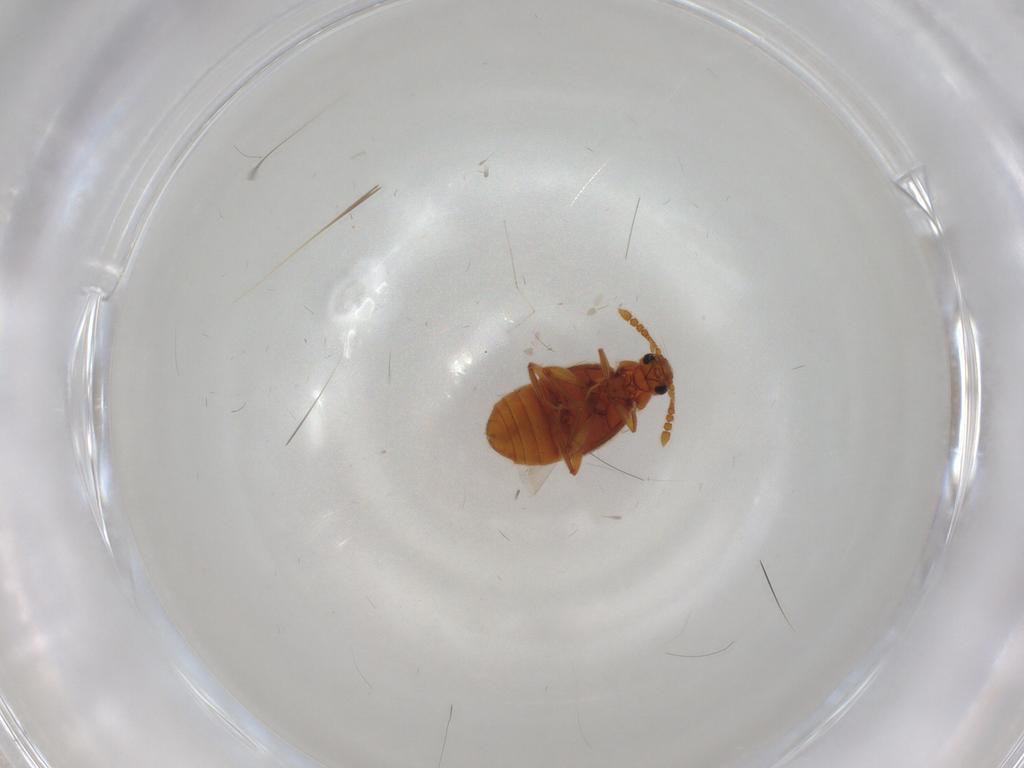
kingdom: Animalia
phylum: Arthropoda
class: Insecta
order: Coleoptera
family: Staphylinidae
